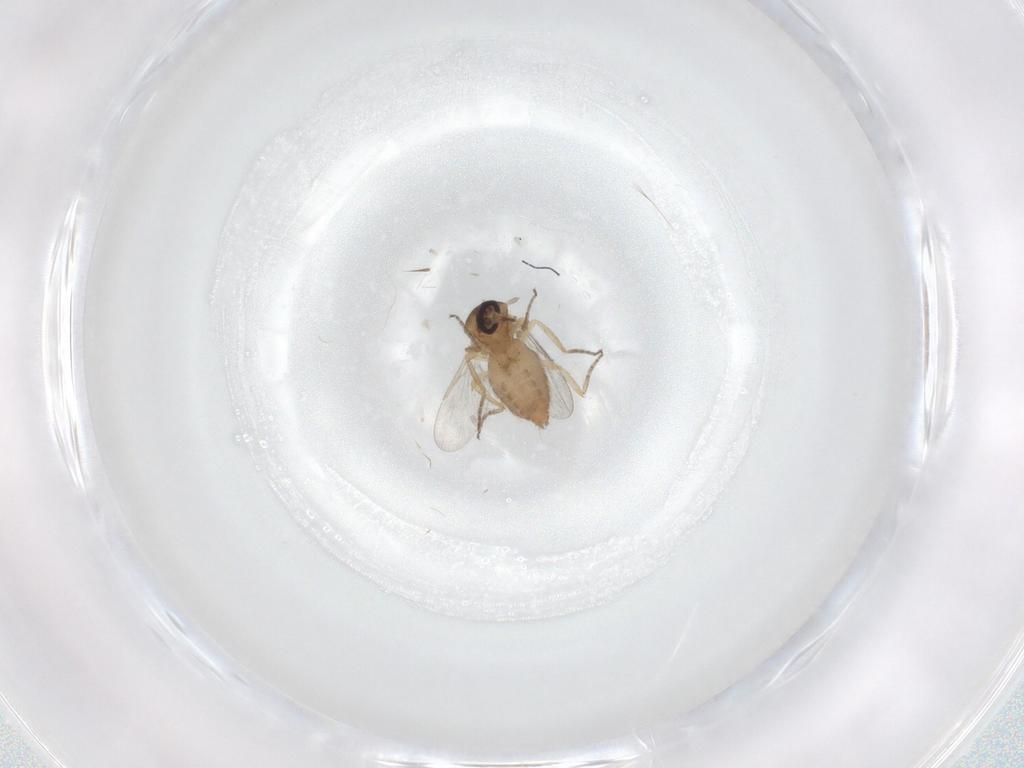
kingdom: Animalia
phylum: Arthropoda
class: Insecta
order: Diptera
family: Ceratopogonidae
